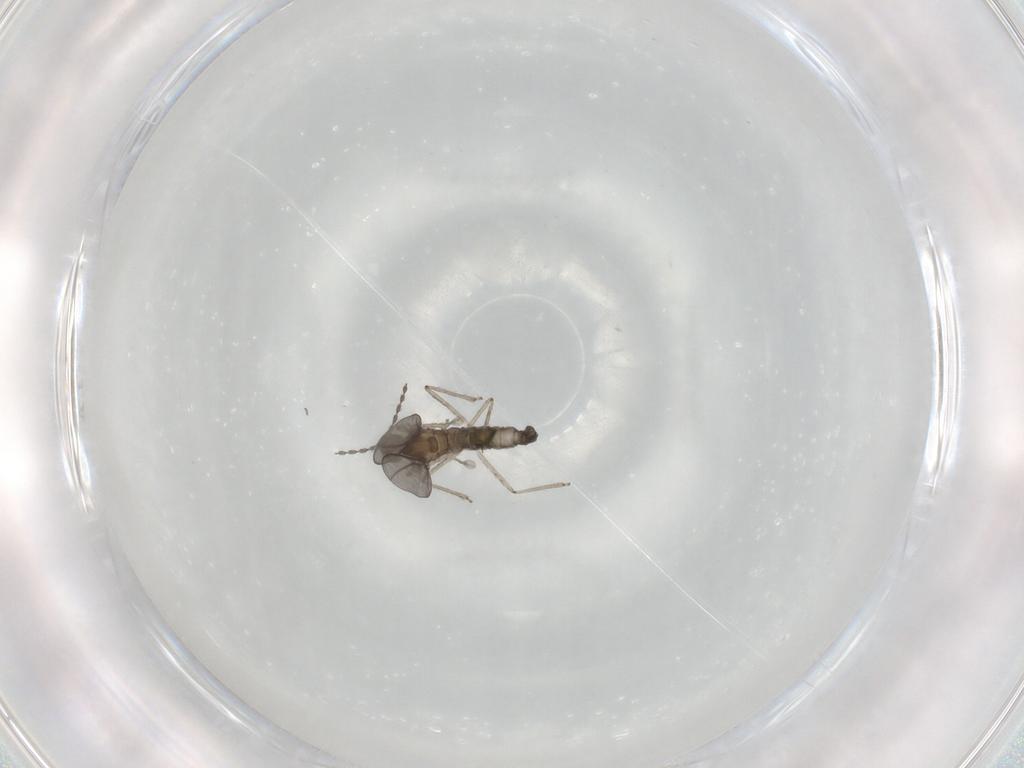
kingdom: Animalia
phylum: Arthropoda
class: Insecta
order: Diptera
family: Cecidomyiidae
